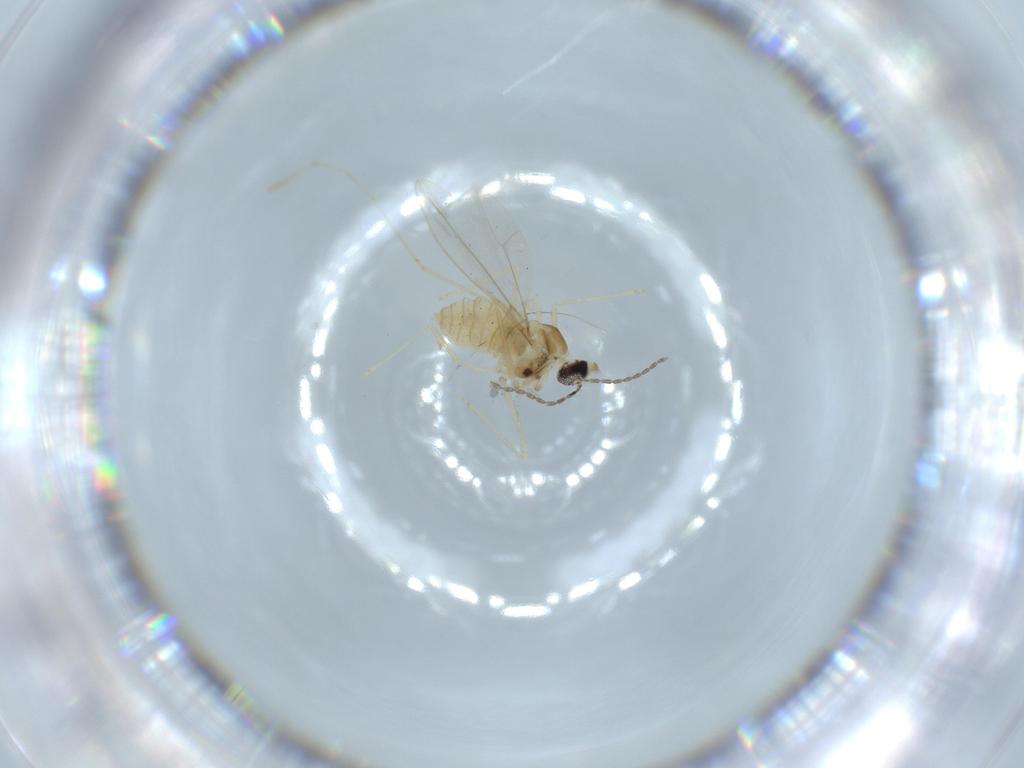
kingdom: Animalia
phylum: Arthropoda
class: Insecta
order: Diptera
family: Cecidomyiidae
